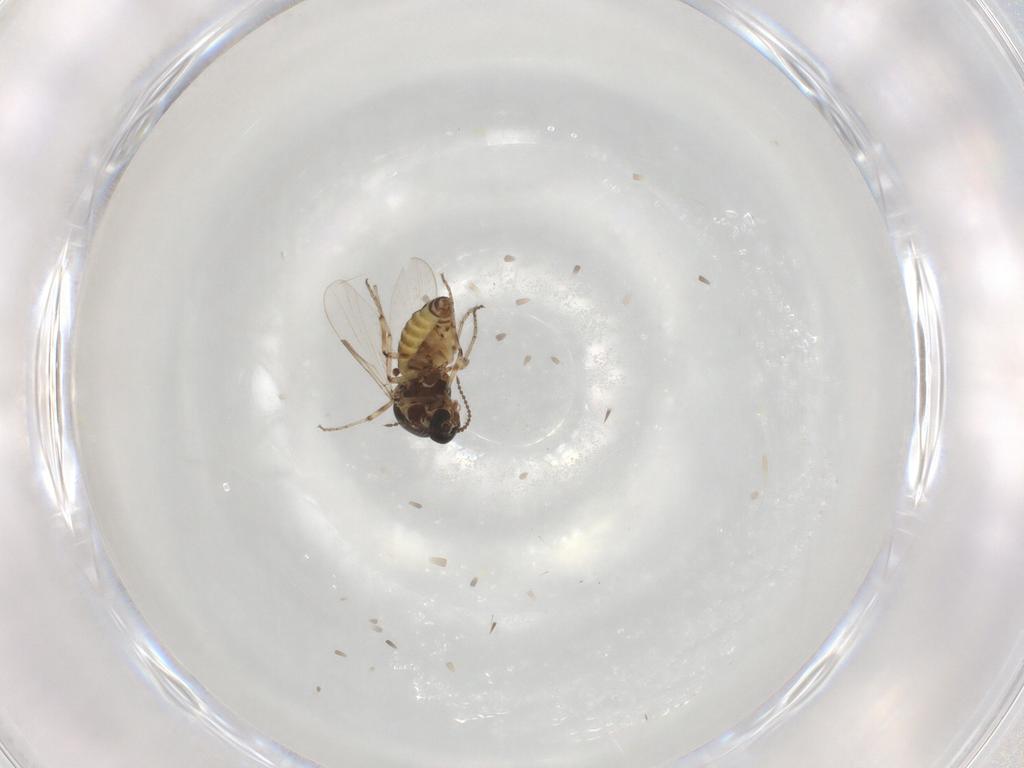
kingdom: Animalia
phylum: Arthropoda
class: Insecta
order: Diptera
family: Ceratopogonidae
